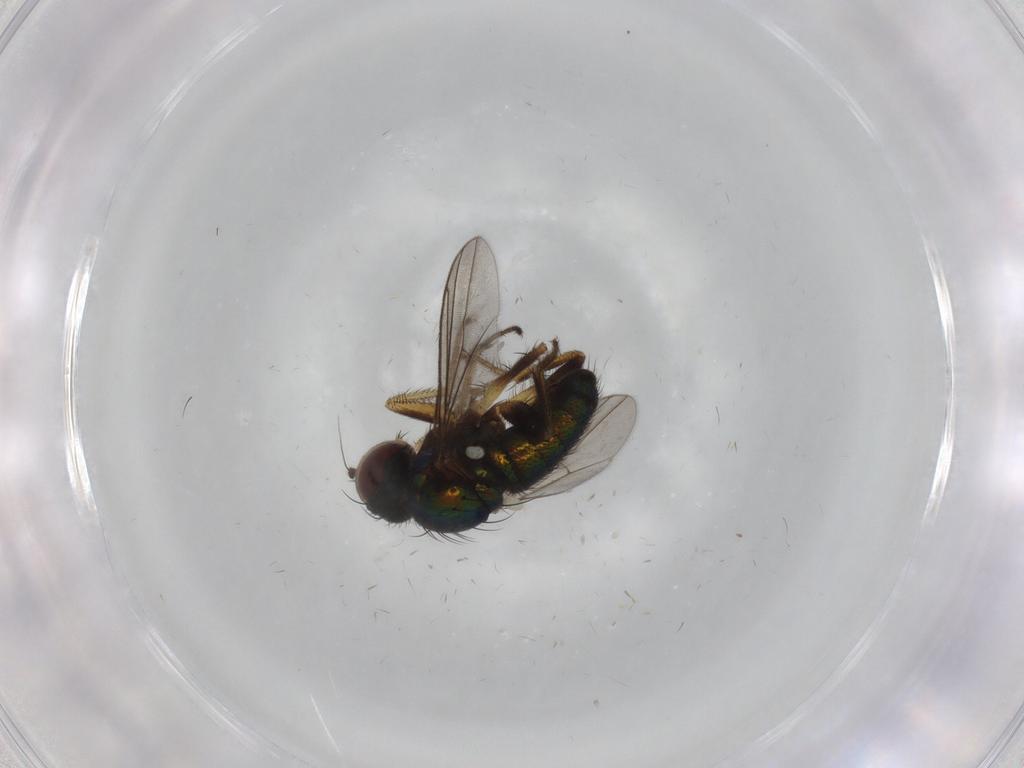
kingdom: Animalia
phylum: Arthropoda
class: Insecta
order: Diptera
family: Dolichopodidae
